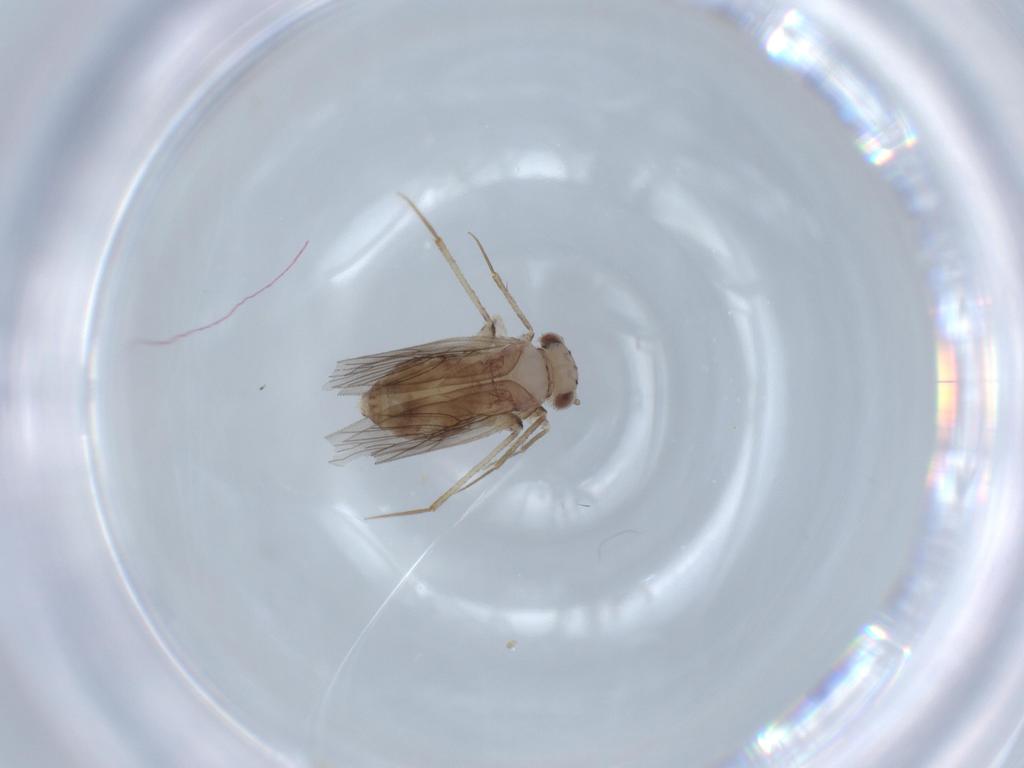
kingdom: Animalia
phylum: Arthropoda
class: Insecta
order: Psocodea
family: Lepidopsocidae
